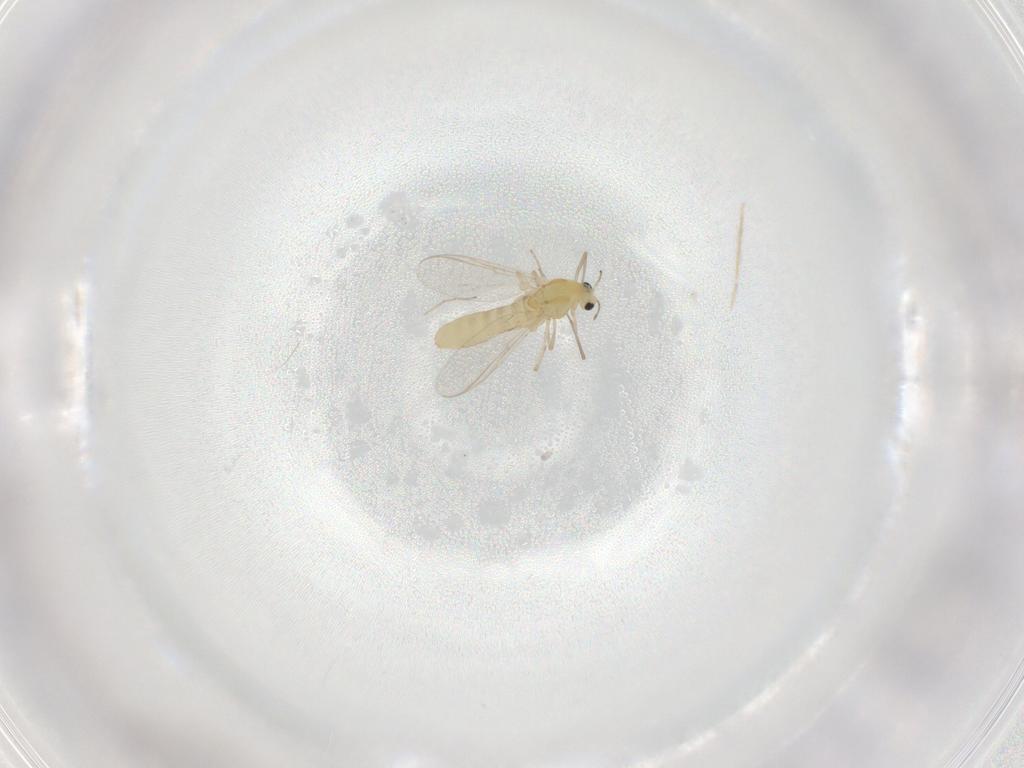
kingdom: Animalia
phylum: Arthropoda
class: Insecta
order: Diptera
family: Chironomidae
